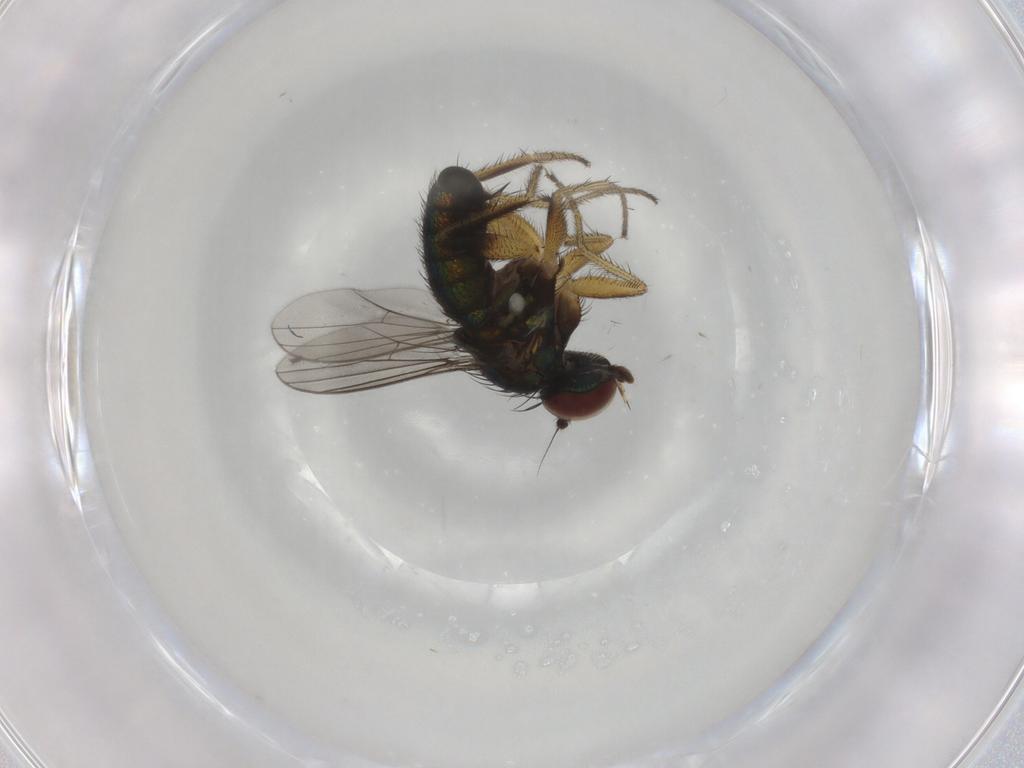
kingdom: Animalia
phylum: Arthropoda
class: Insecta
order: Diptera
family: Dolichopodidae
